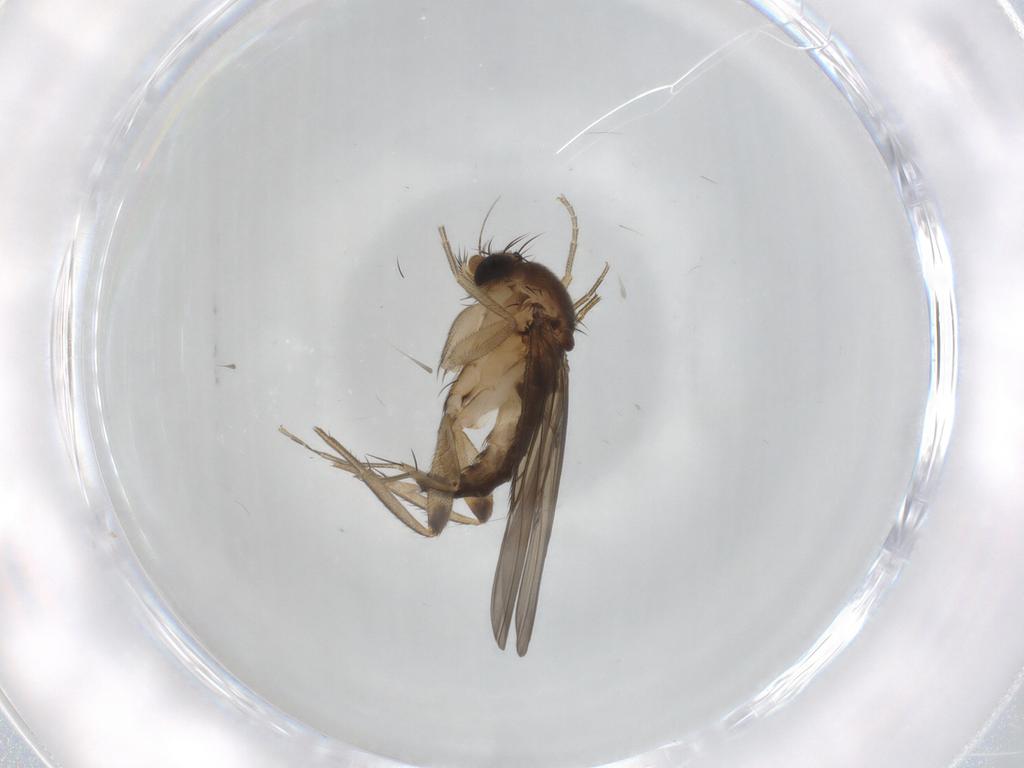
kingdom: Animalia
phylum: Arthropoda
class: Insecta
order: Diptera
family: Phoridae
